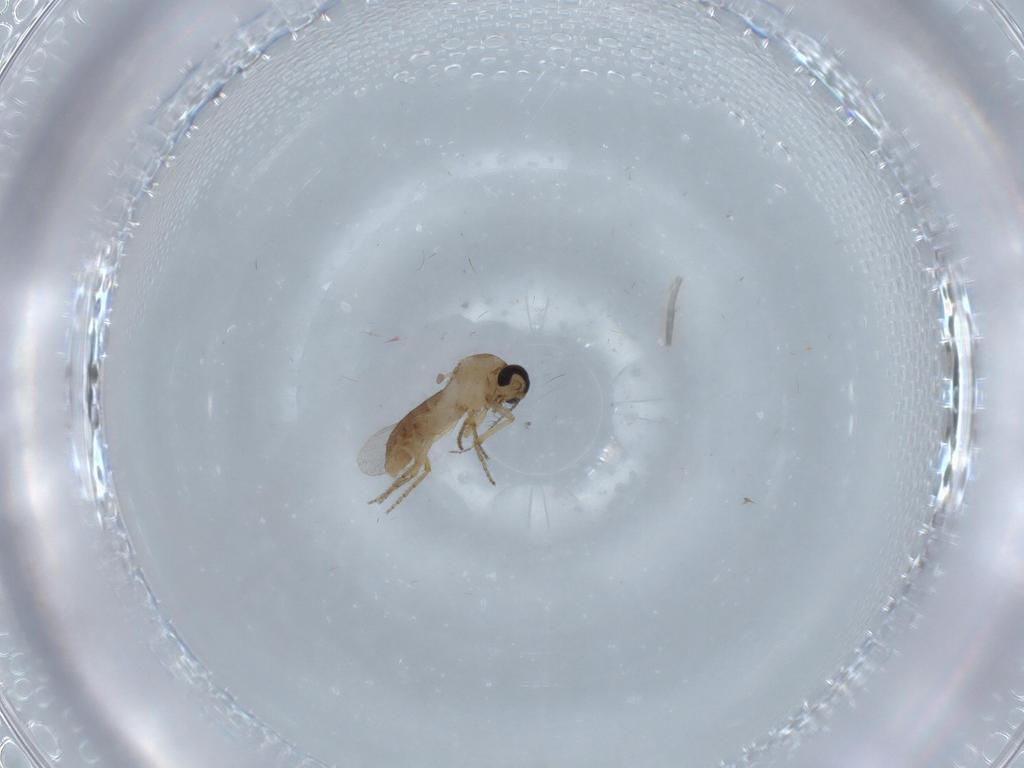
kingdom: Animalia
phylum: Arthropoda
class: Insecta
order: Diptera
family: Ceratopogonidae
